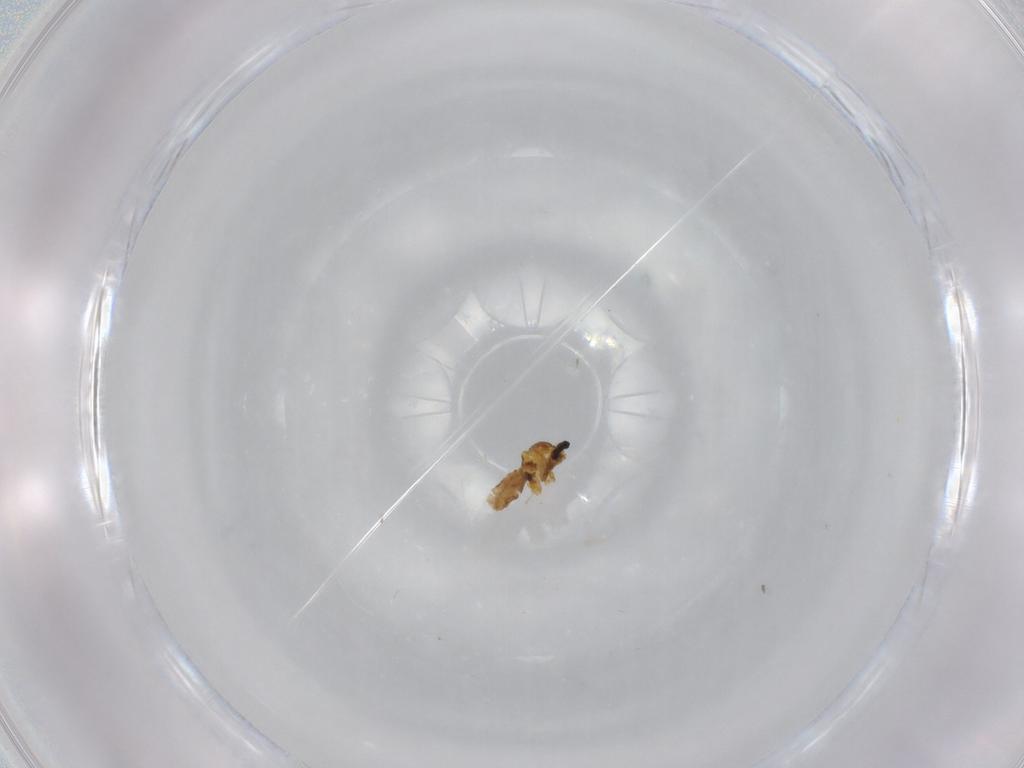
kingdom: Animalia
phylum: Arthropoda
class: Insecta
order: Diptera
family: Cecidomyiidae
